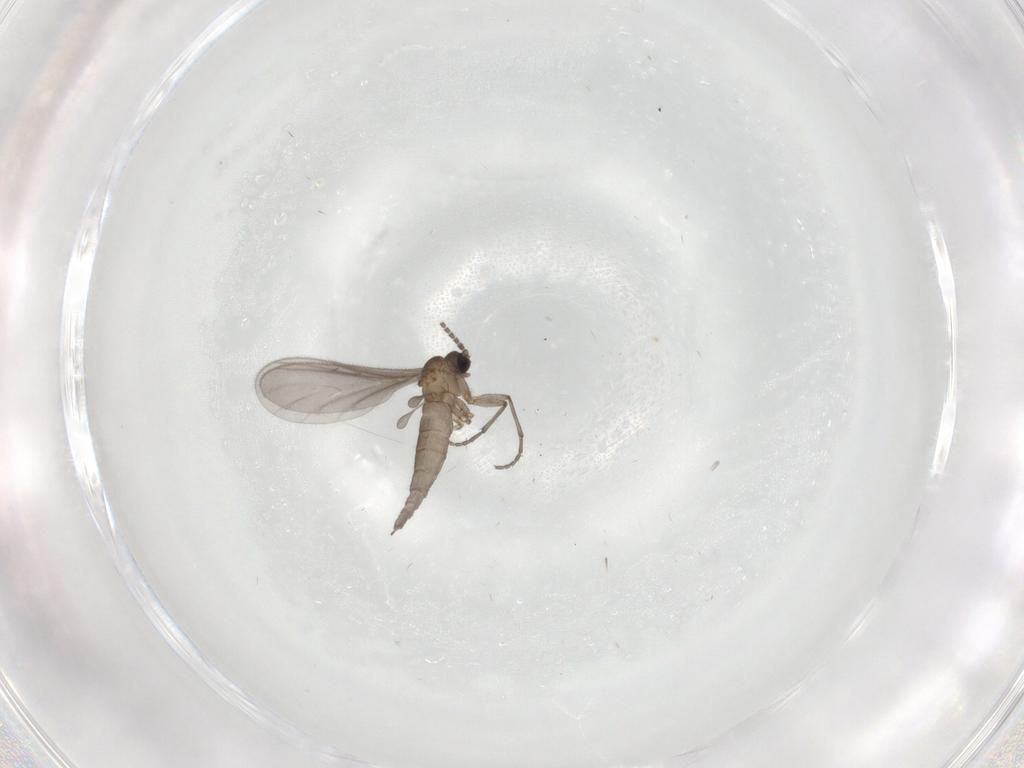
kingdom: Animalia
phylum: Arthropoda
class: Insecta
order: Diptera
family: Sciaridae
